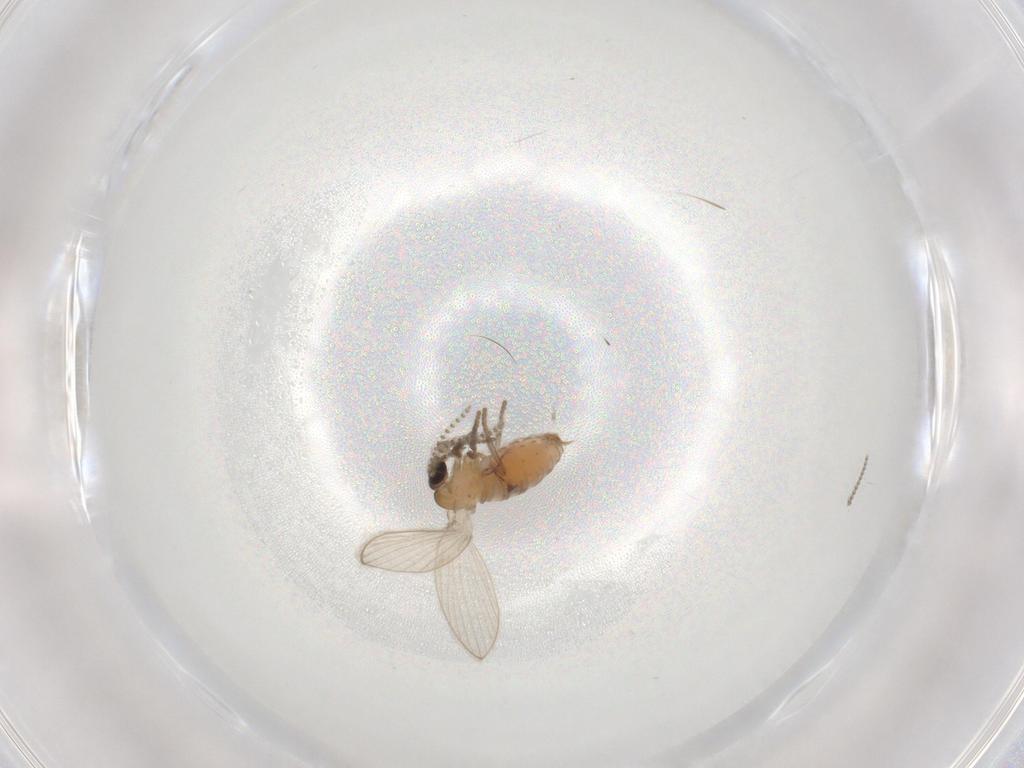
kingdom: Animalia
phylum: Arthropoda
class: Insecta
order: Diptera
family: Psychodidae
